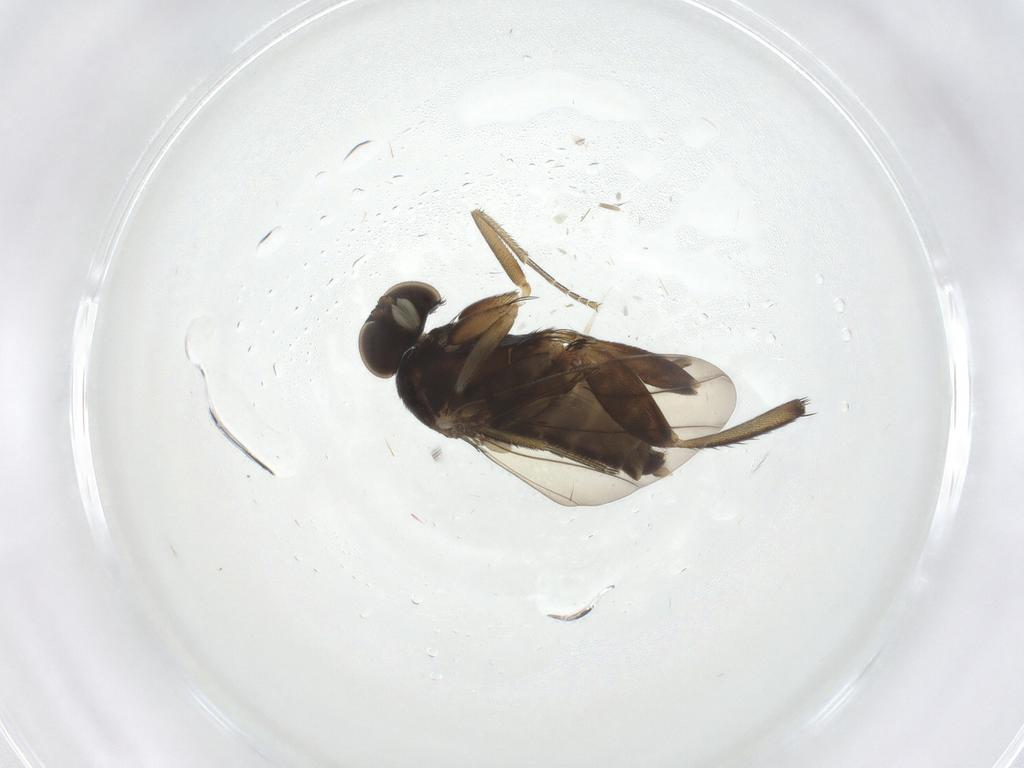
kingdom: Animalia
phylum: Arthropoda
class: Insecta
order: Diptera
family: Phoridae
